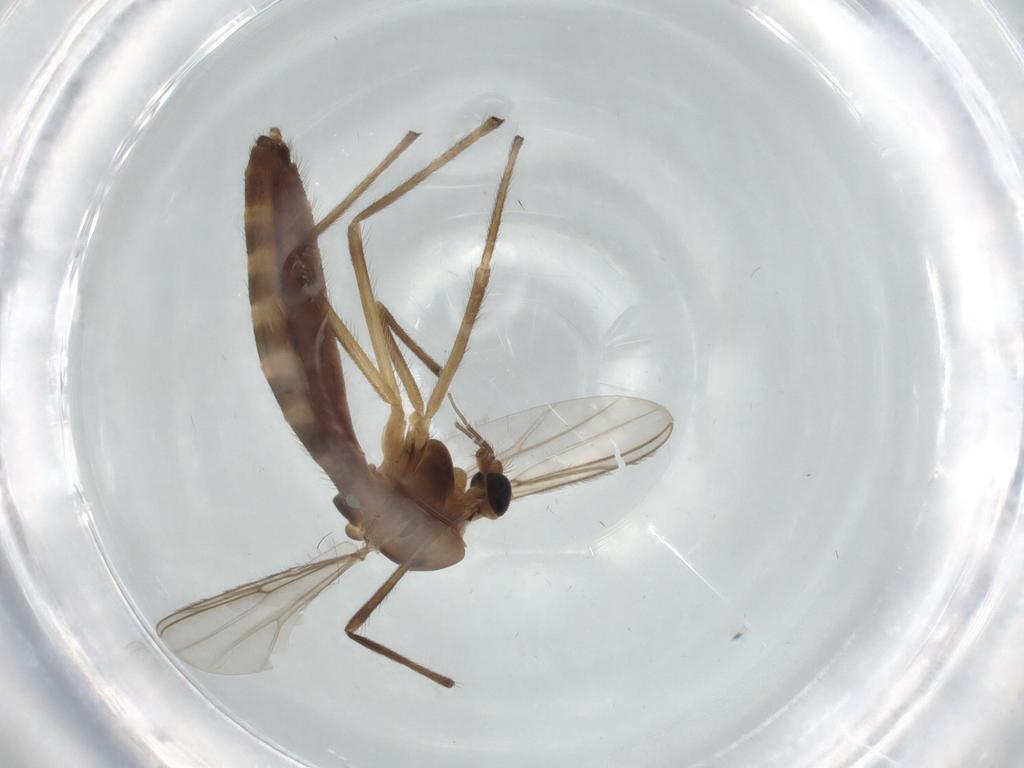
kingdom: Animalia
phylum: Arthropoda
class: Insecta
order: Diptera
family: Chironomidae
